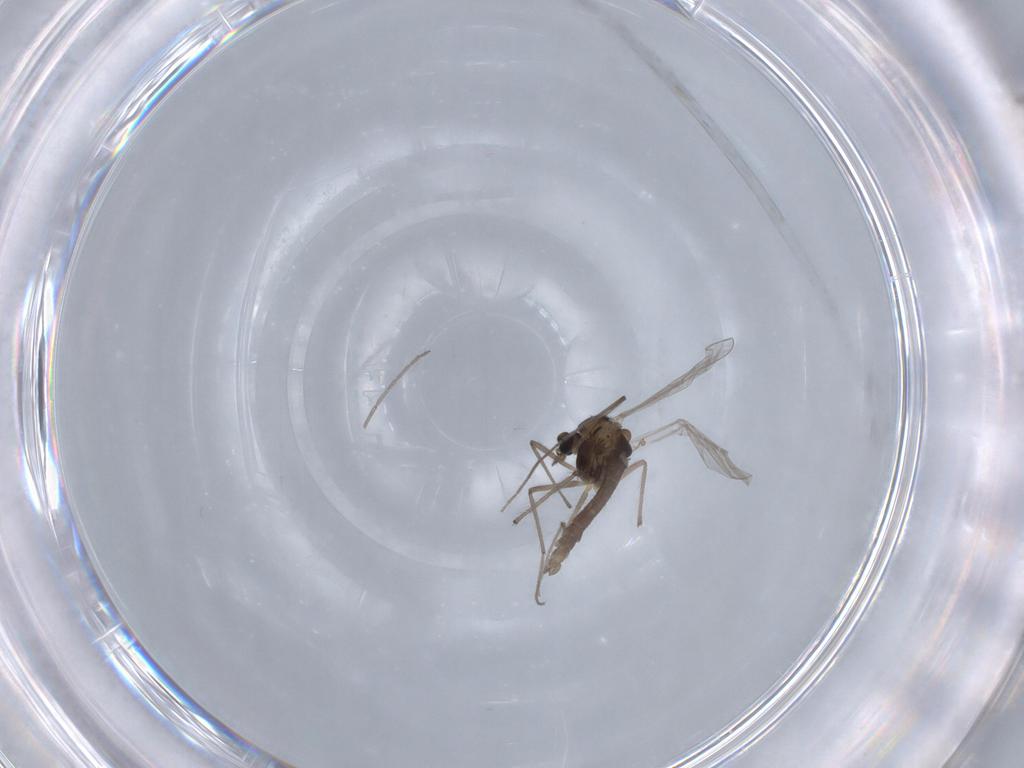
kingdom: Animalia
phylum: Arthropoda
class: Insecta
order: Diptera
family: Chironomidae
